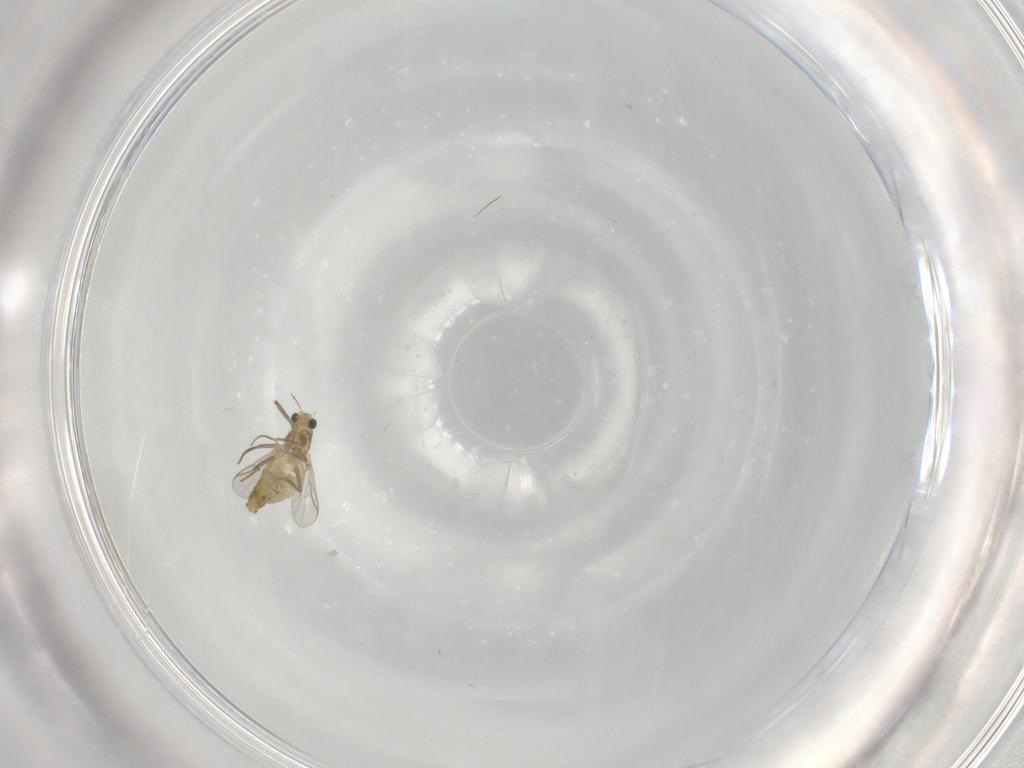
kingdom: Animalia
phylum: Arthropoda
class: Insecta
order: Diptera
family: Chironomidae
